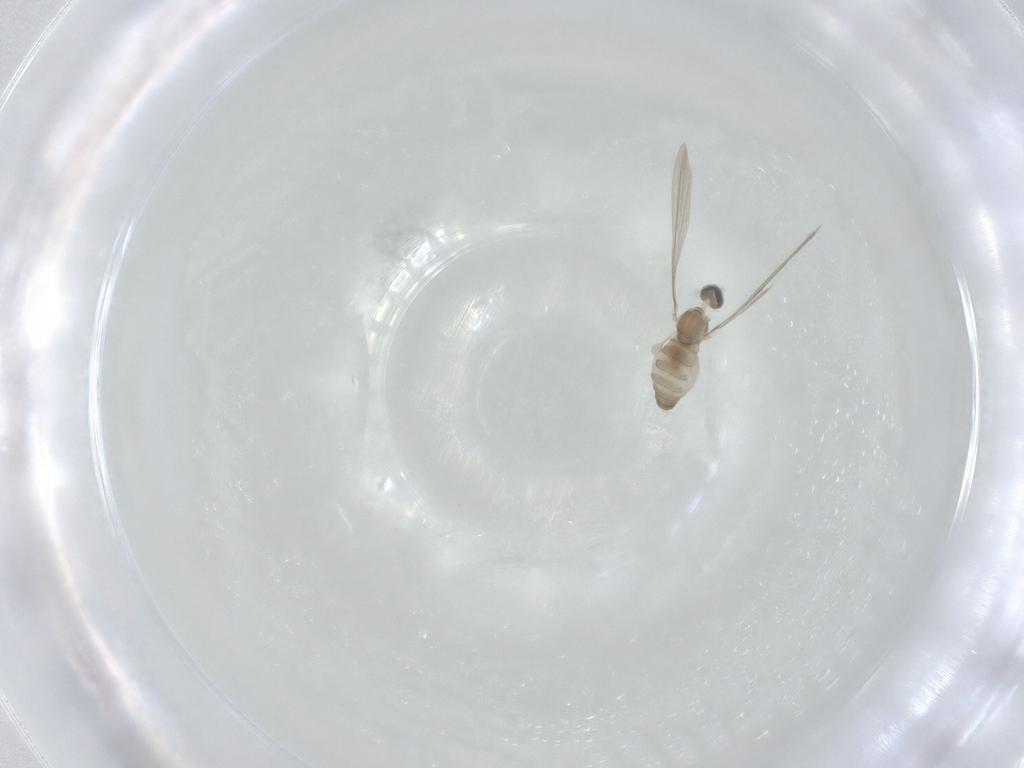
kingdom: Animalia
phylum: Arthropoda
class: Insecta
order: Diptera
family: Cecidomyiidae
